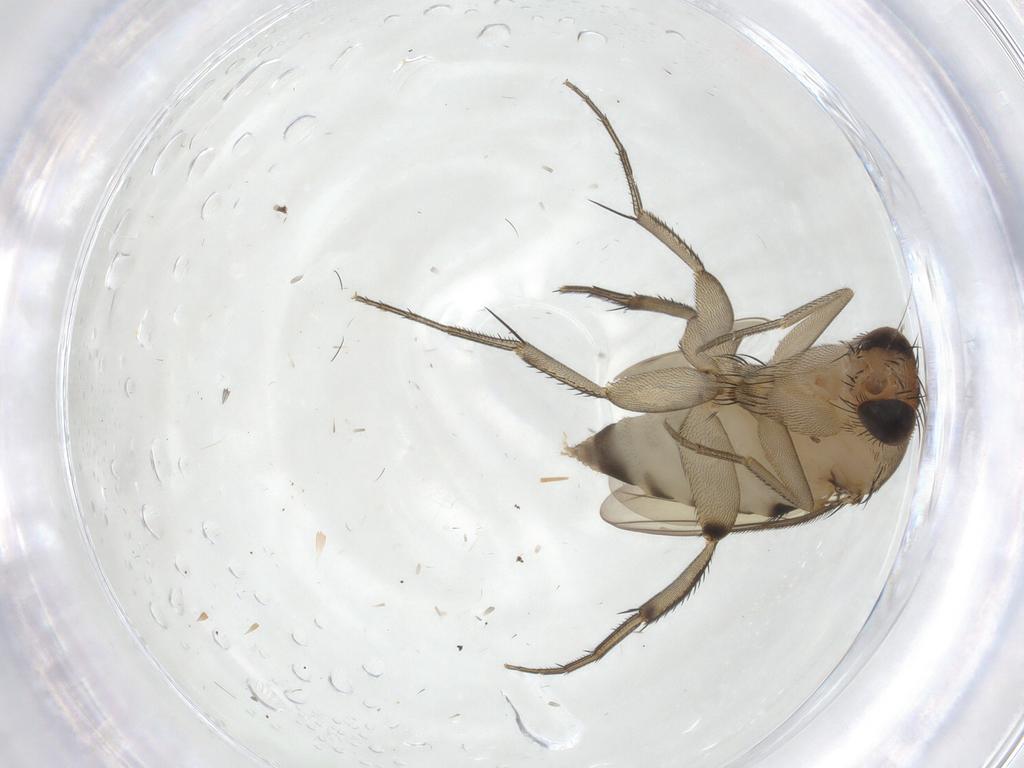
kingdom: Animalia
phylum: Arthropoda
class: Insecta
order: Diptera
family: Phoridae
